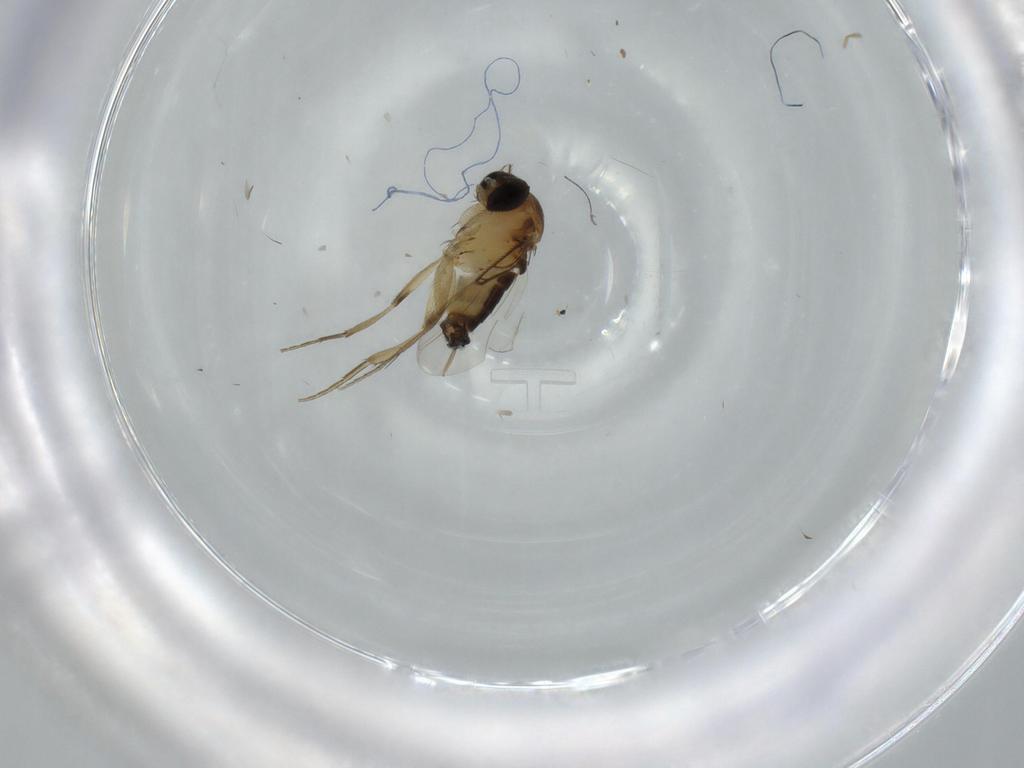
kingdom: Animalia
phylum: Arthropoda
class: Insecta
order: Diptera
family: Phoridae
